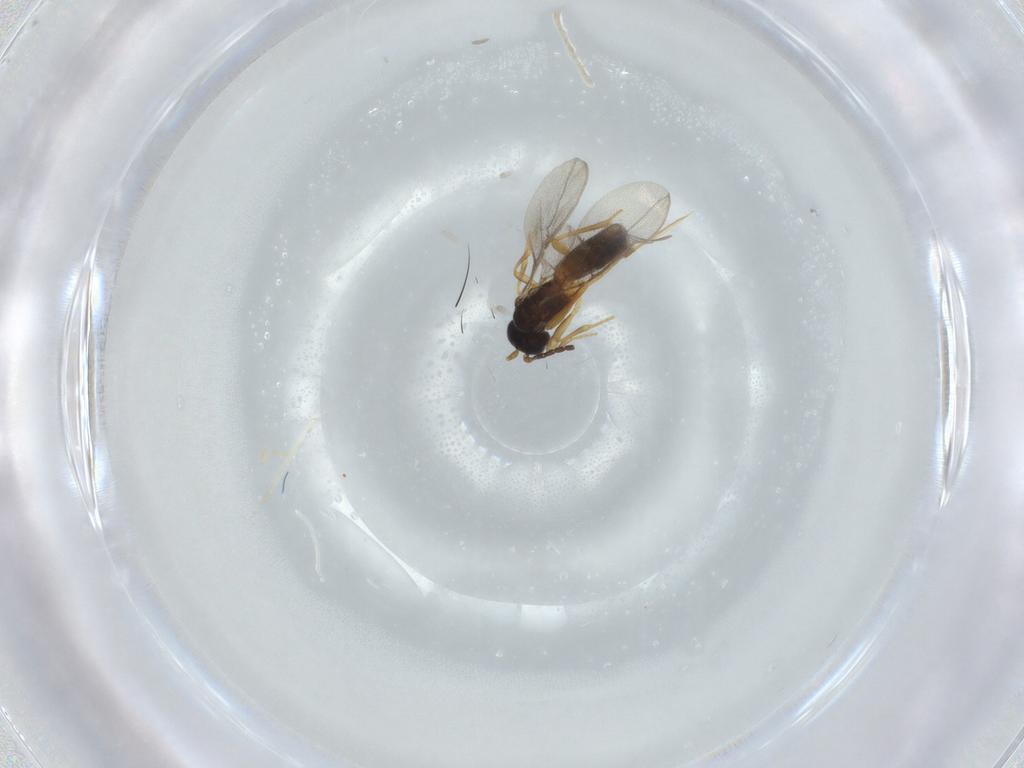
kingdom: Animalia
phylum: Arthropoda
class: Insecta
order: Hymenoptera
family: Braconidae
